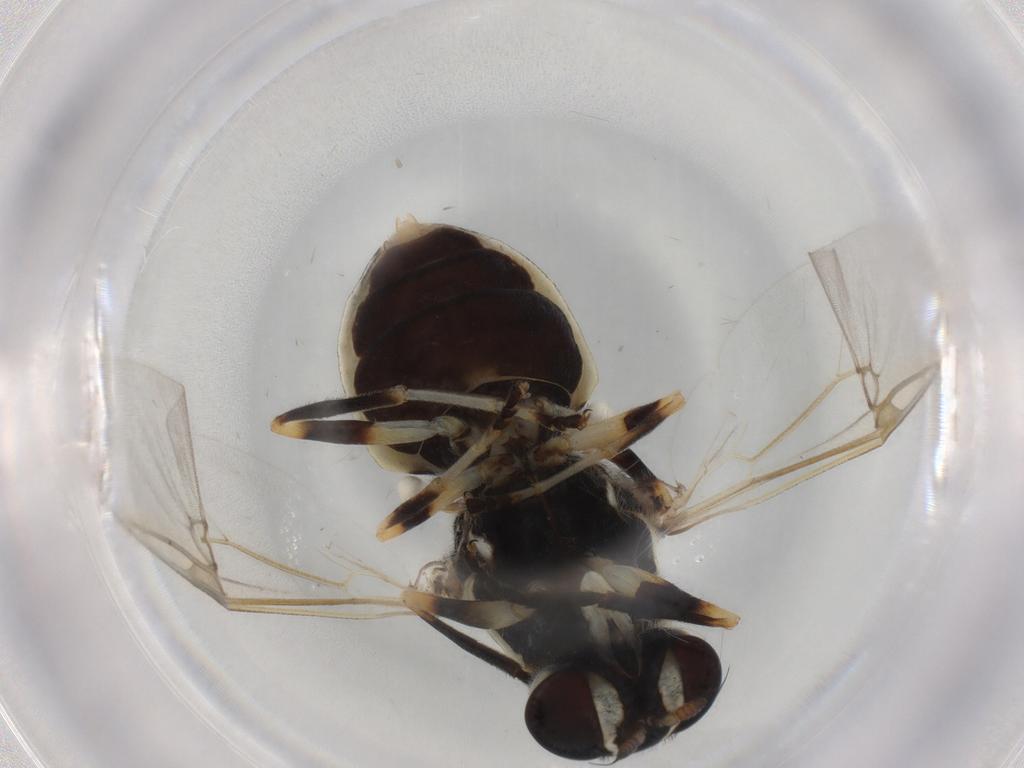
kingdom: Animalia
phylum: Arthropoda
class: Insecta
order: Diptera
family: Stratiomyidae
